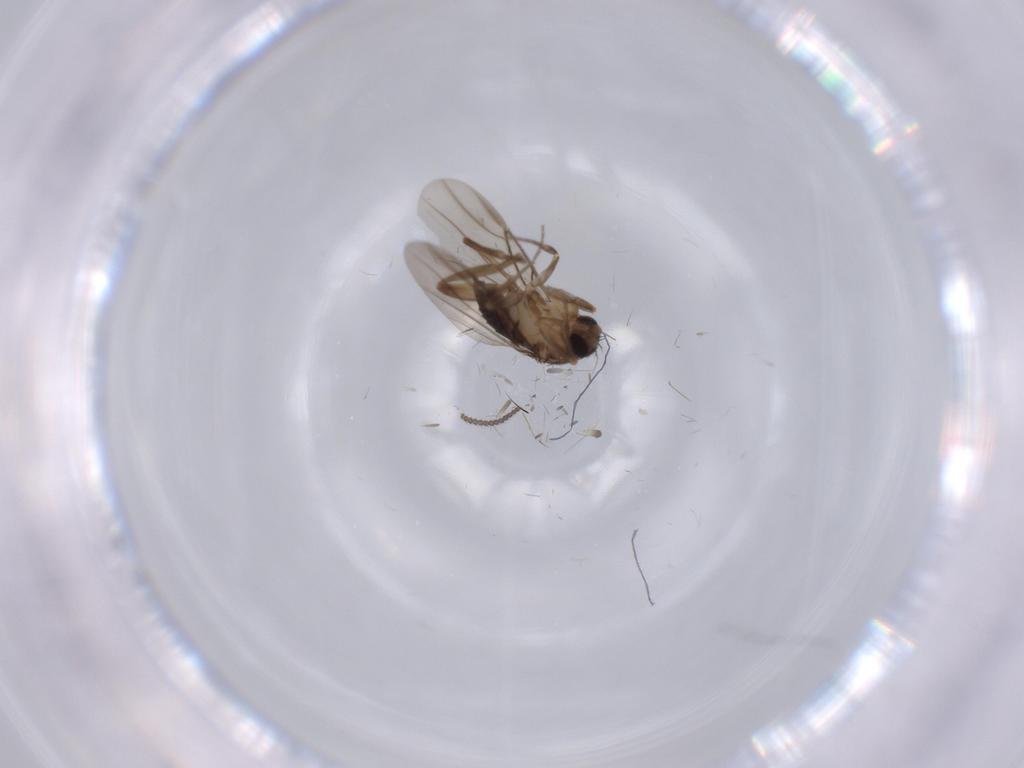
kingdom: Animalia
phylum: Arthropoda
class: Insecta
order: Diptera
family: Phoridae
